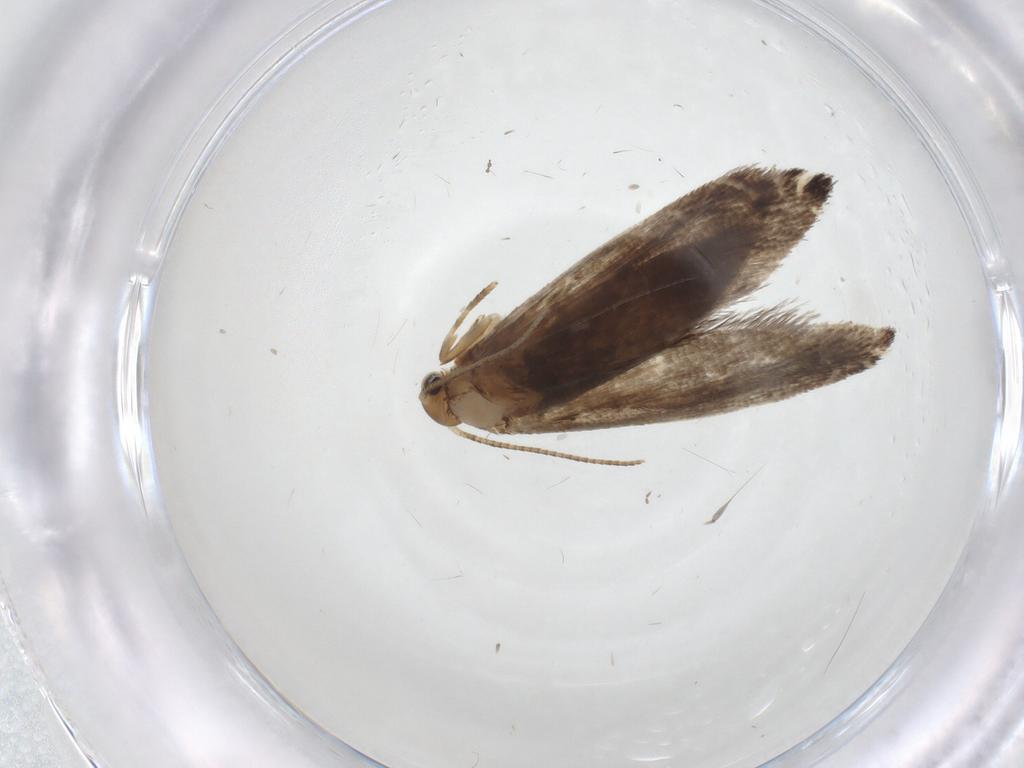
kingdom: Animalia
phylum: Arthropoda
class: Insecta
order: Lepidoptera
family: Tineidae
